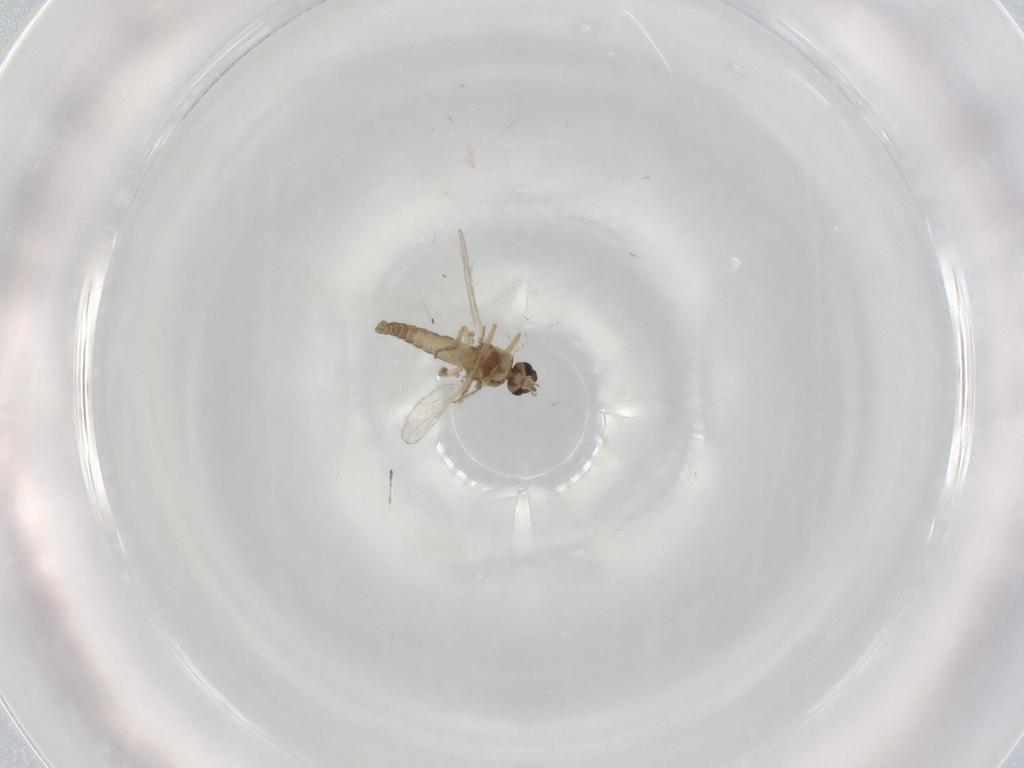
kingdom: Animalia
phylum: Arthropoda
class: Insecta
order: Diptera
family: Ceratopogonidae
